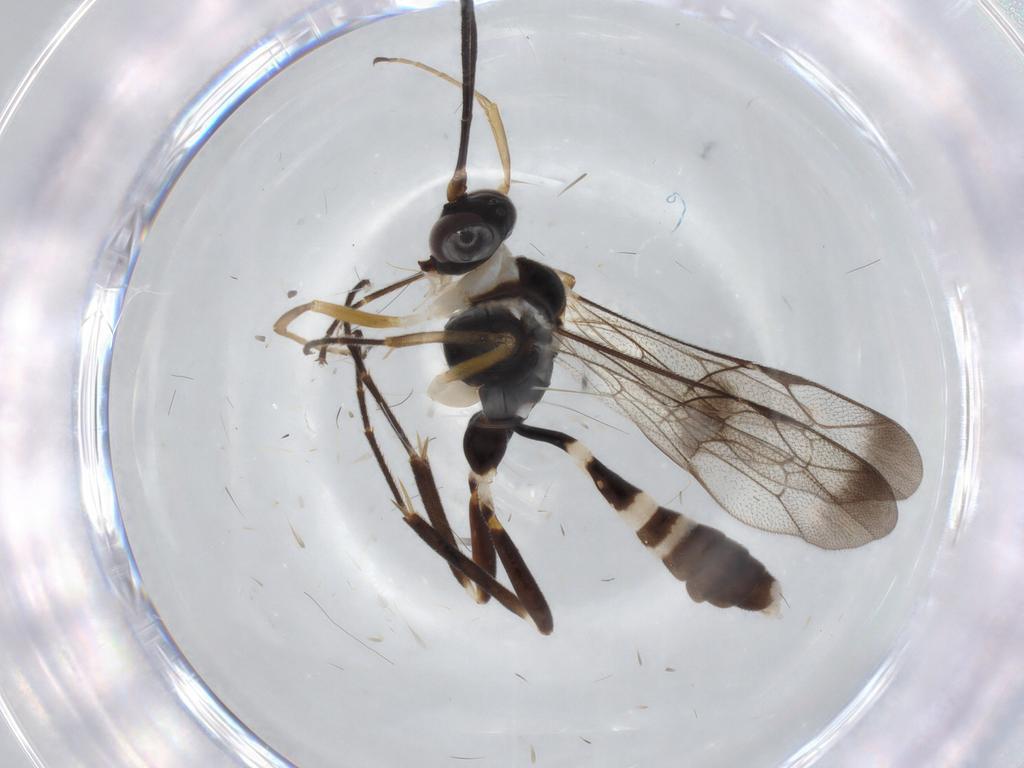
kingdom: Animalia
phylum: Arthropoda
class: Insecta
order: Hymenoptera
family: Ichneumonidae
